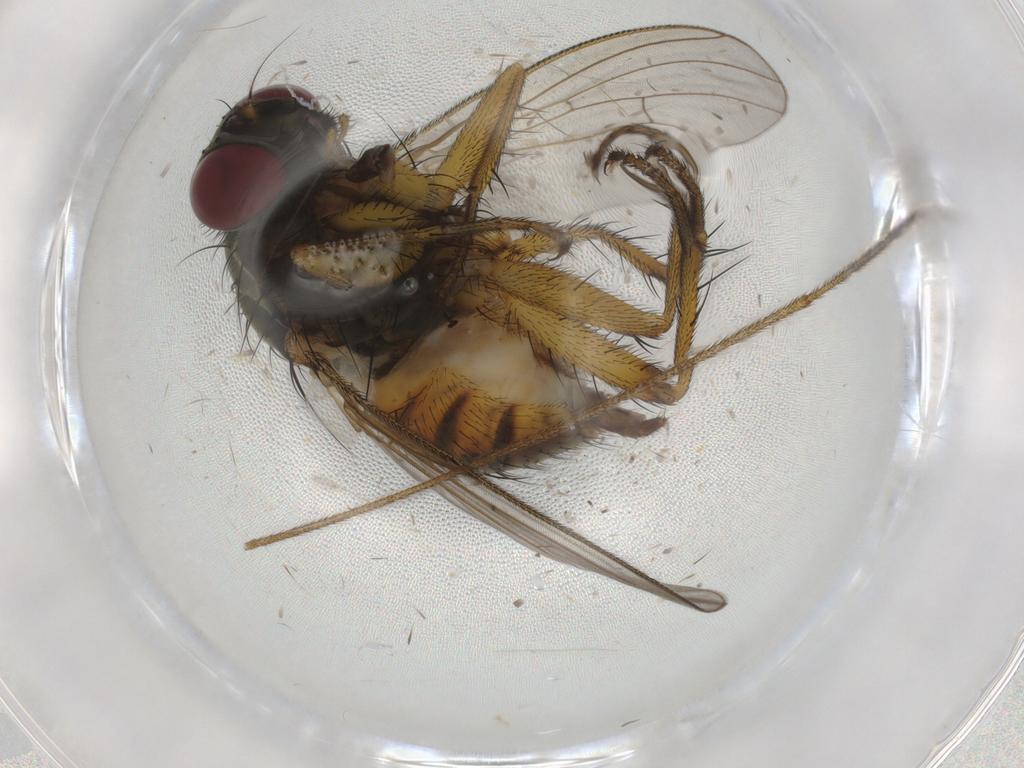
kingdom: Animalia
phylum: Arthropoda
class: Insecta
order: Diptera
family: Muscidae
